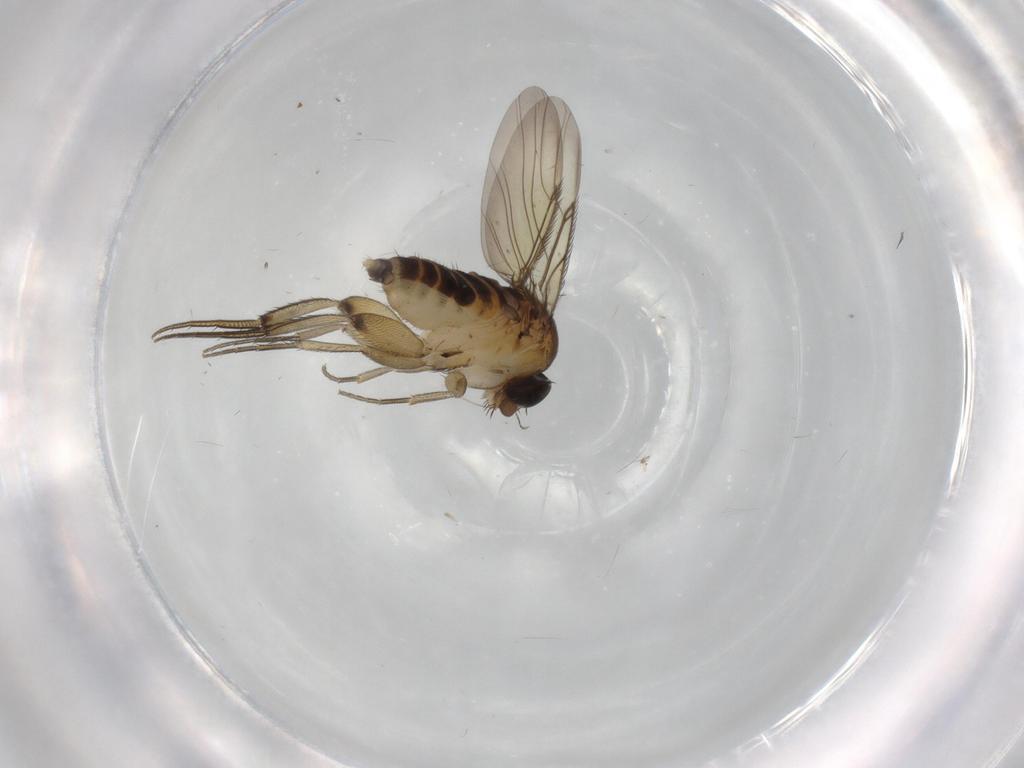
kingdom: Animalia
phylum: Arthropoda
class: Insecta
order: Diptera
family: Phoridae
